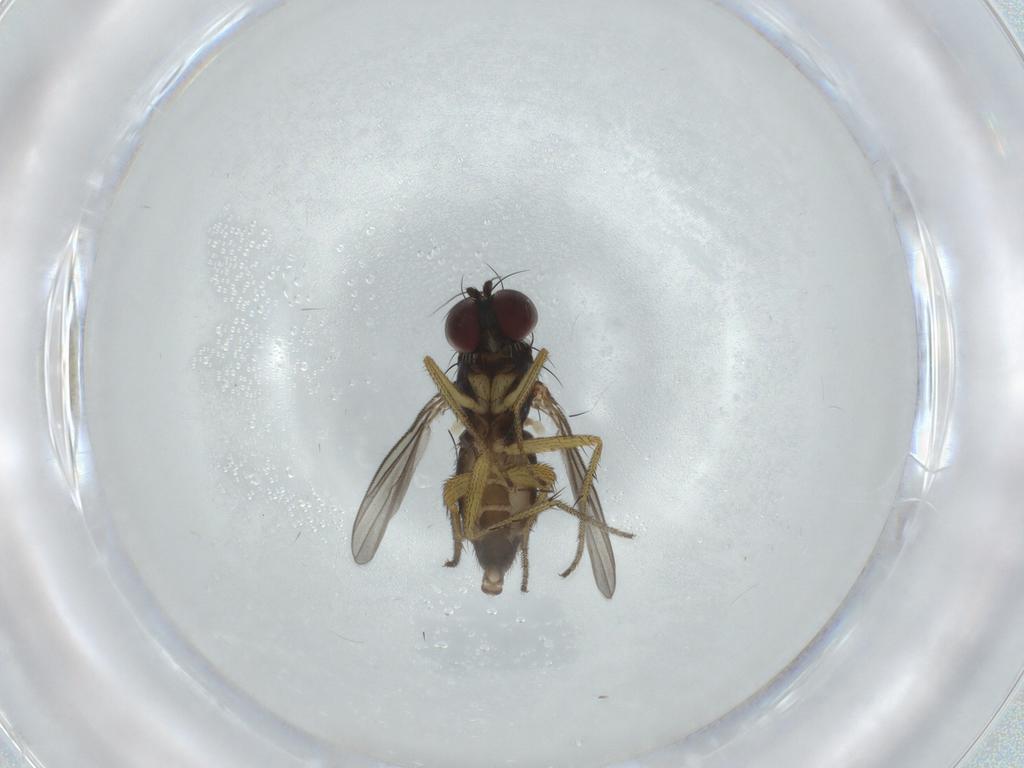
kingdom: Animalia
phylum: Arthropoda
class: Insecta
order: Diptera
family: Dolichopodidae
